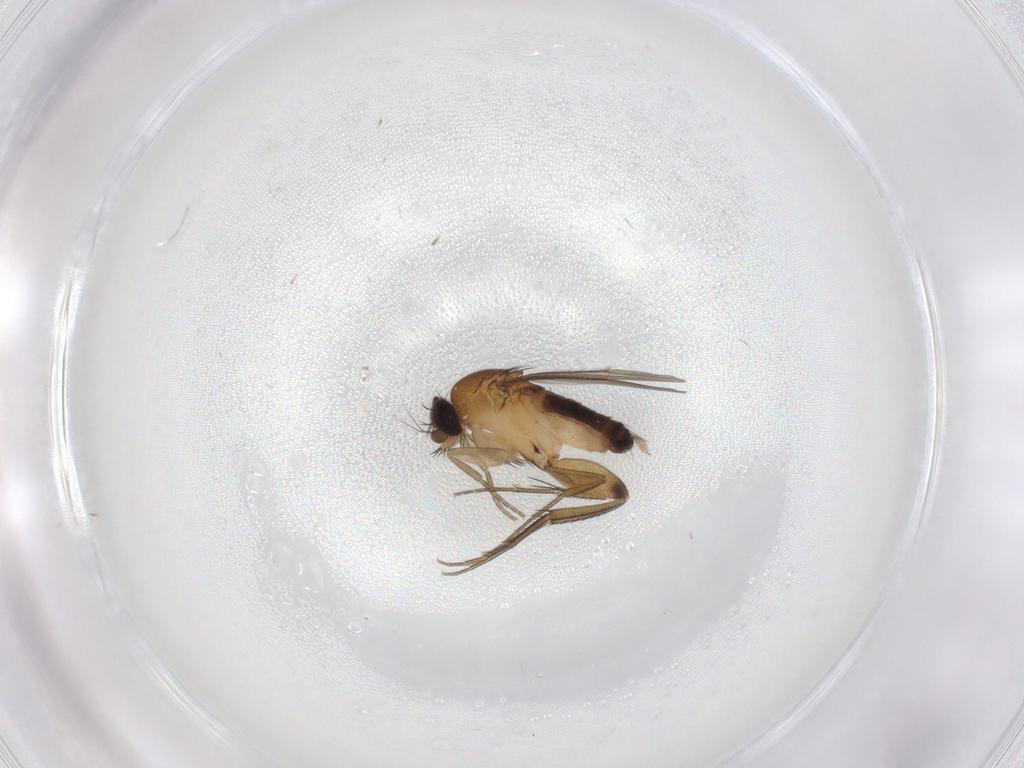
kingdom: Animalia
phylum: Arthropoda
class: Insecta
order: Diptera
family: Phoridae
